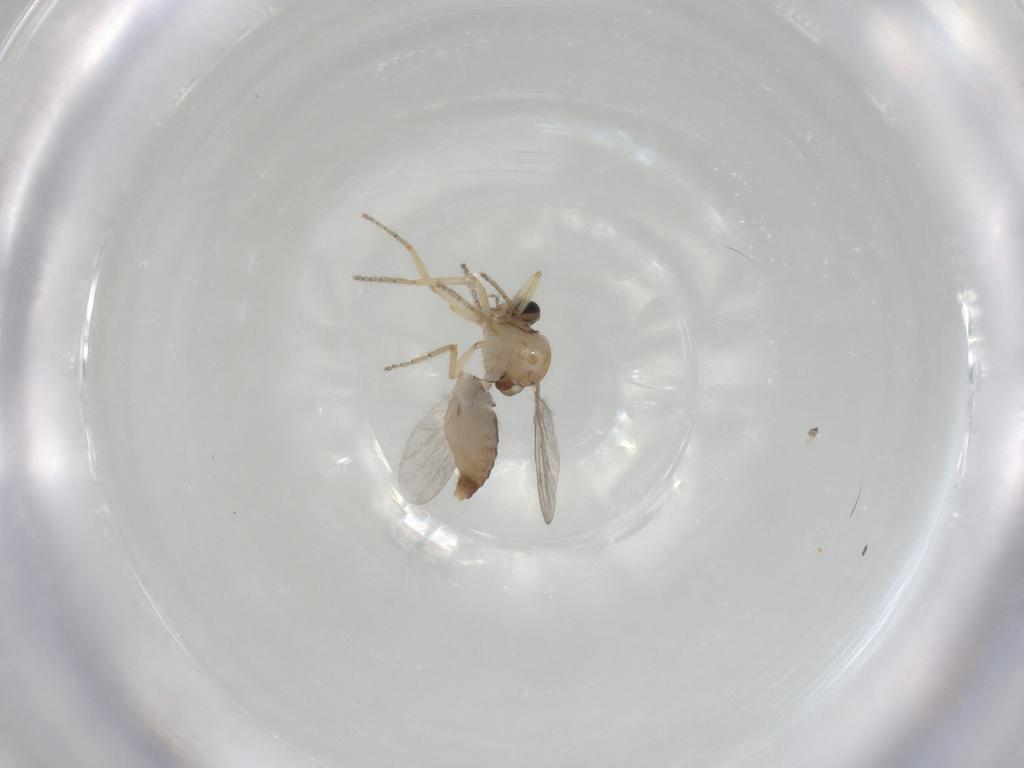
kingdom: Animalia
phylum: Arthropoda
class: Insecta
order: Diptera
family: Ceratopogonidae
